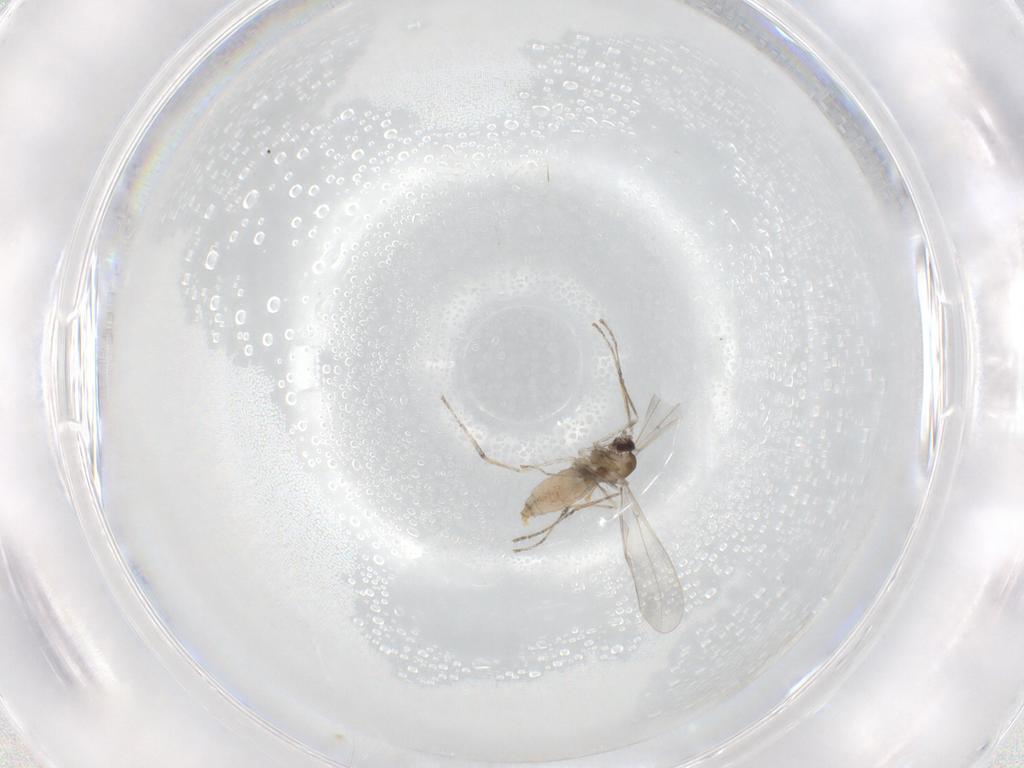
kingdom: Animalia
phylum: Arthropoda
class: Insecta
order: Diptera
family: Cecidomyiidae
